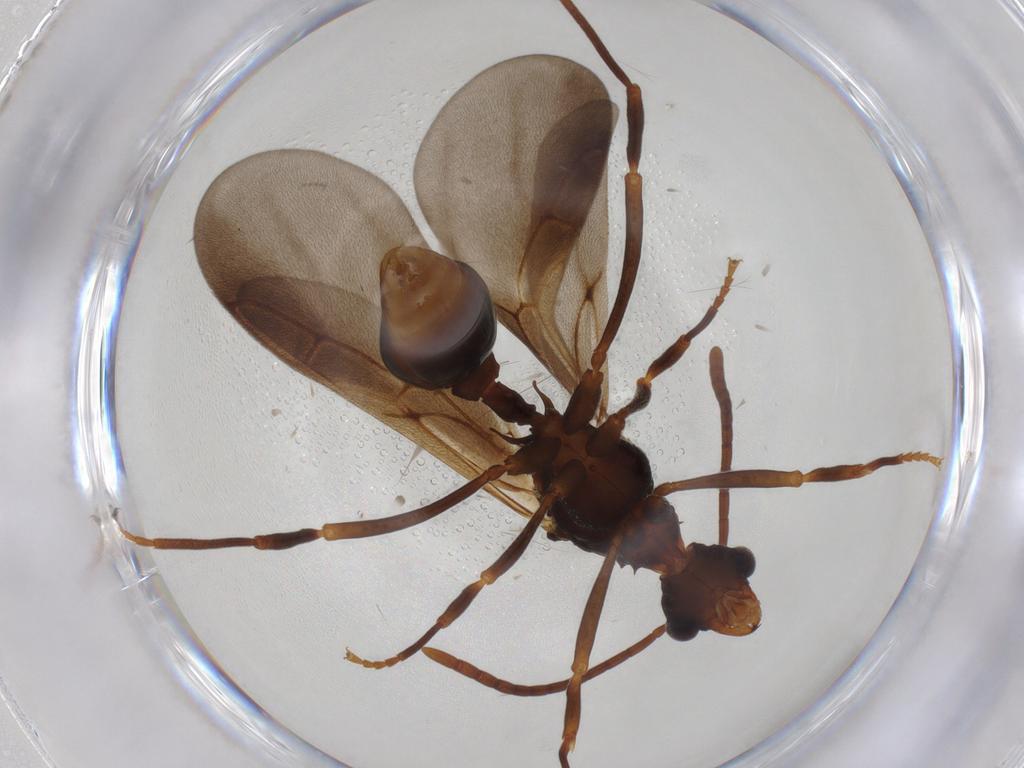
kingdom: Animalia
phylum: Arthropoda
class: Insecta
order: Hymenoptera
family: Formicidae
